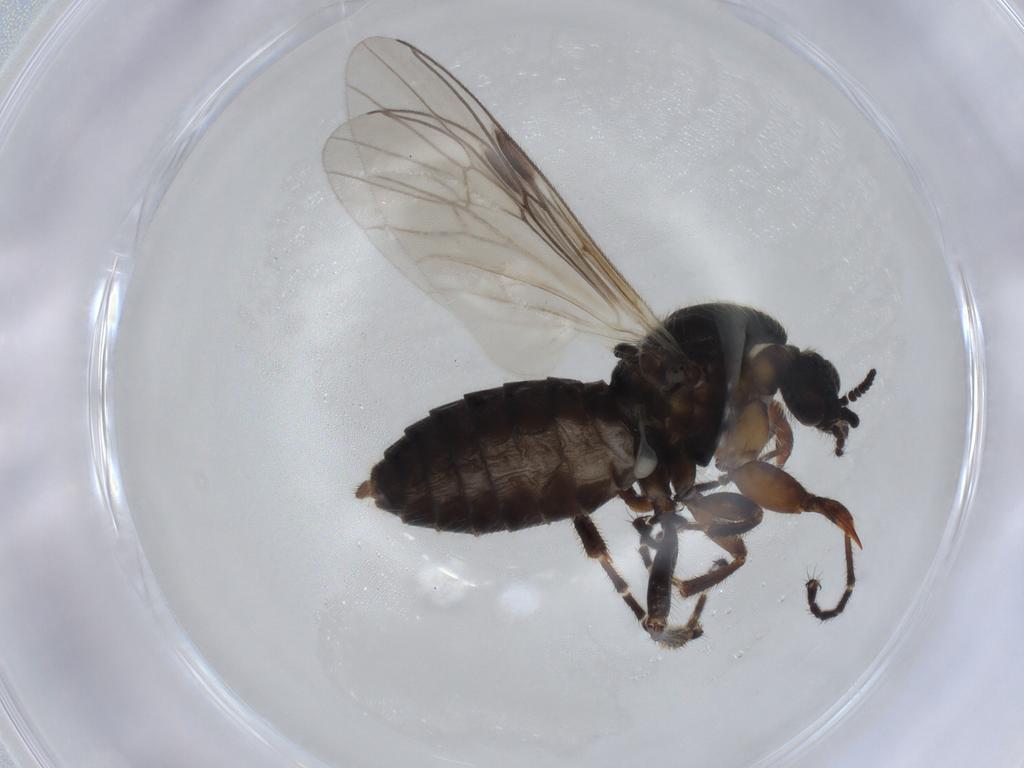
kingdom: Animalia
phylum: Arthropoda
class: Insecta
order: Diptera
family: Bibionidae
